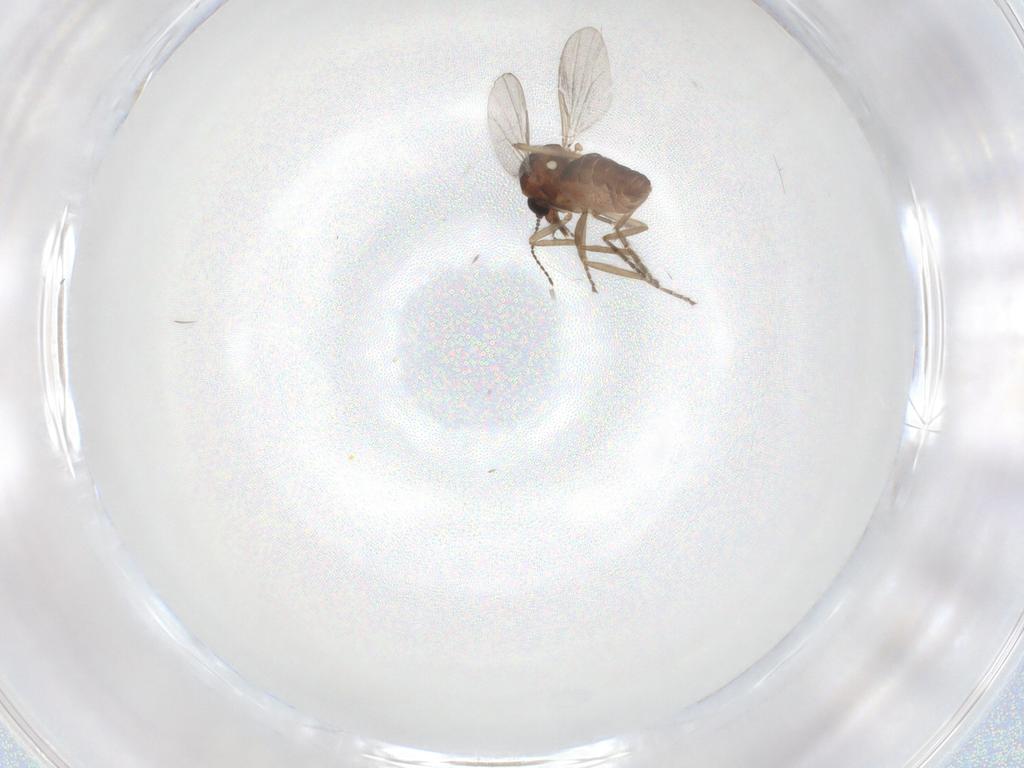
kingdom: Animalia
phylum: Arthropoda
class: Insecta
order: Diptera
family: Ceratopogonidae
